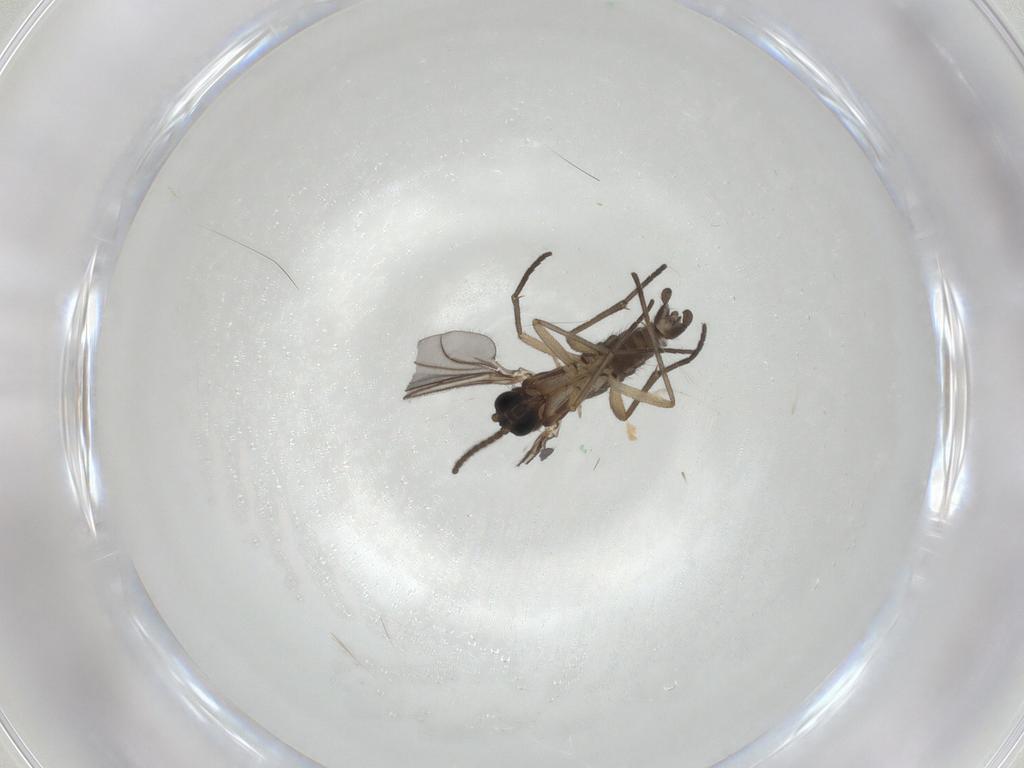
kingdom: Animalia
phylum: Arthropoda
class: Insecta
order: Diptera
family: Sciaridae
